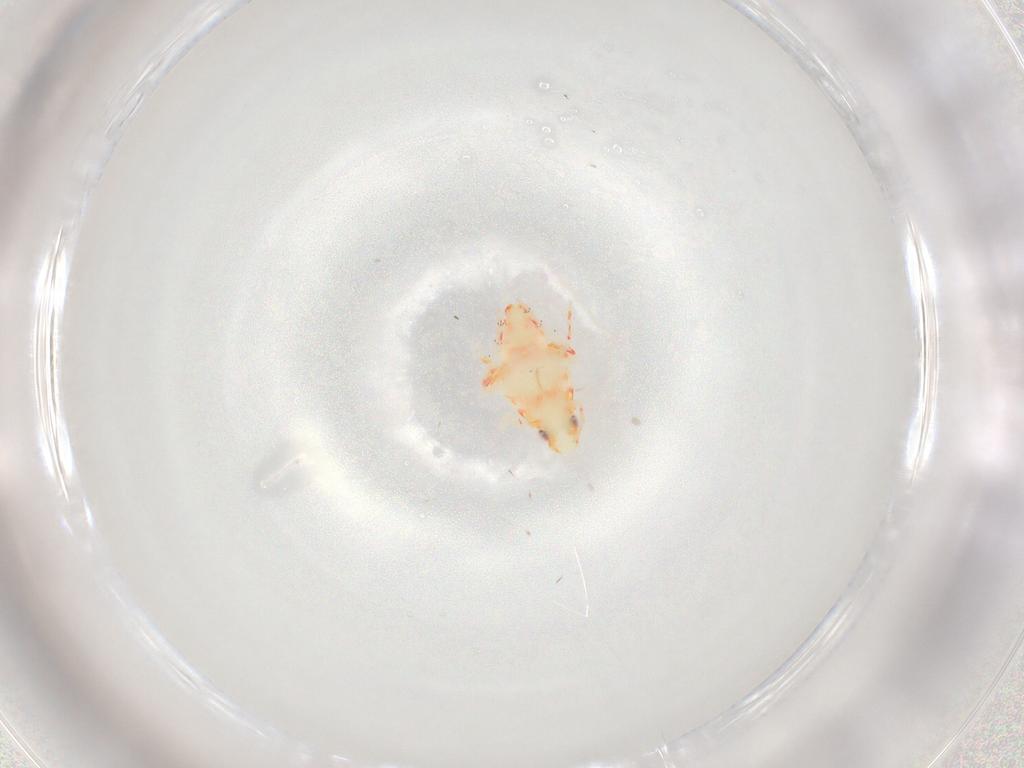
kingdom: Animalia
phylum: Arthropoda
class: Insecta
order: Hemiptera
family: Tropiduchidae
